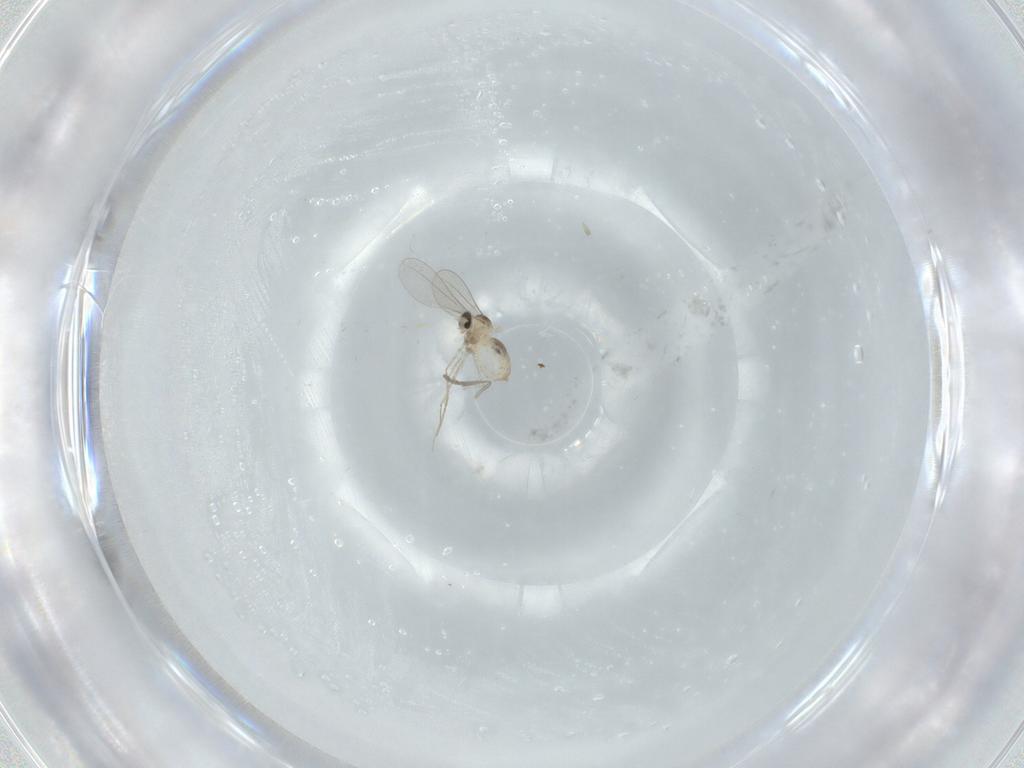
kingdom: Animalia
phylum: Arthropoda
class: Insecta
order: Diptera
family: Cecidomyiidae
